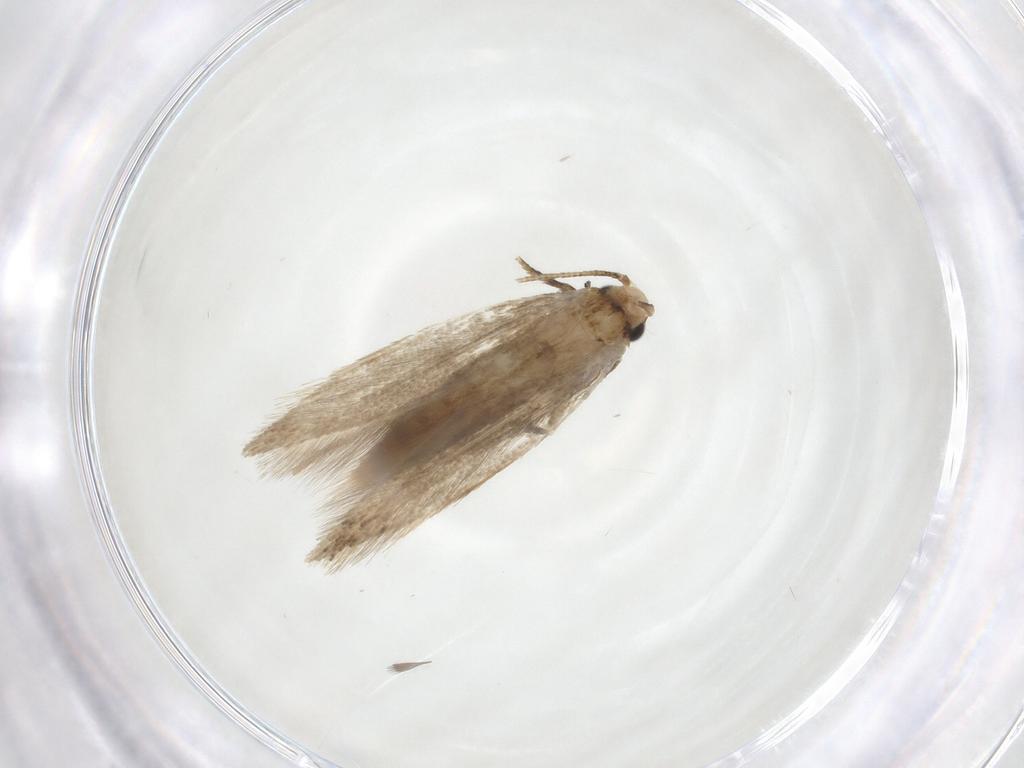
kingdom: Animalia
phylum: Arthropoda
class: Insecta
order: Lepidoptera
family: Tineidae
